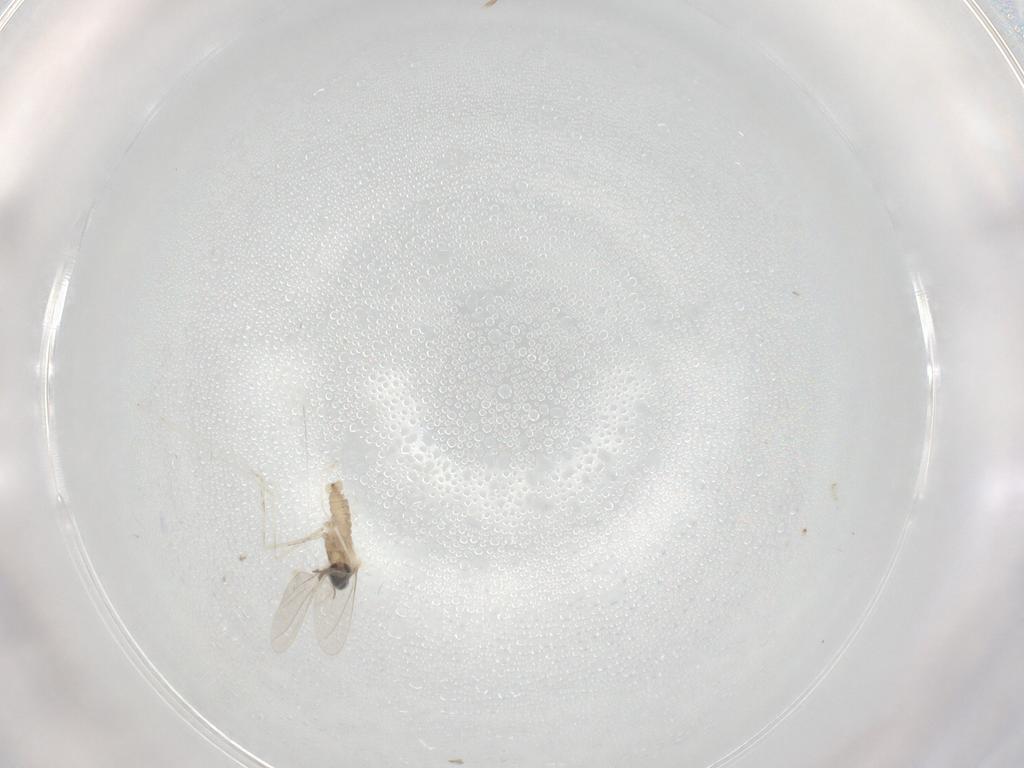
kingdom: Animalia
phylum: Arthropoda
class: Insecta
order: Diptera
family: Cecidomyiidae
